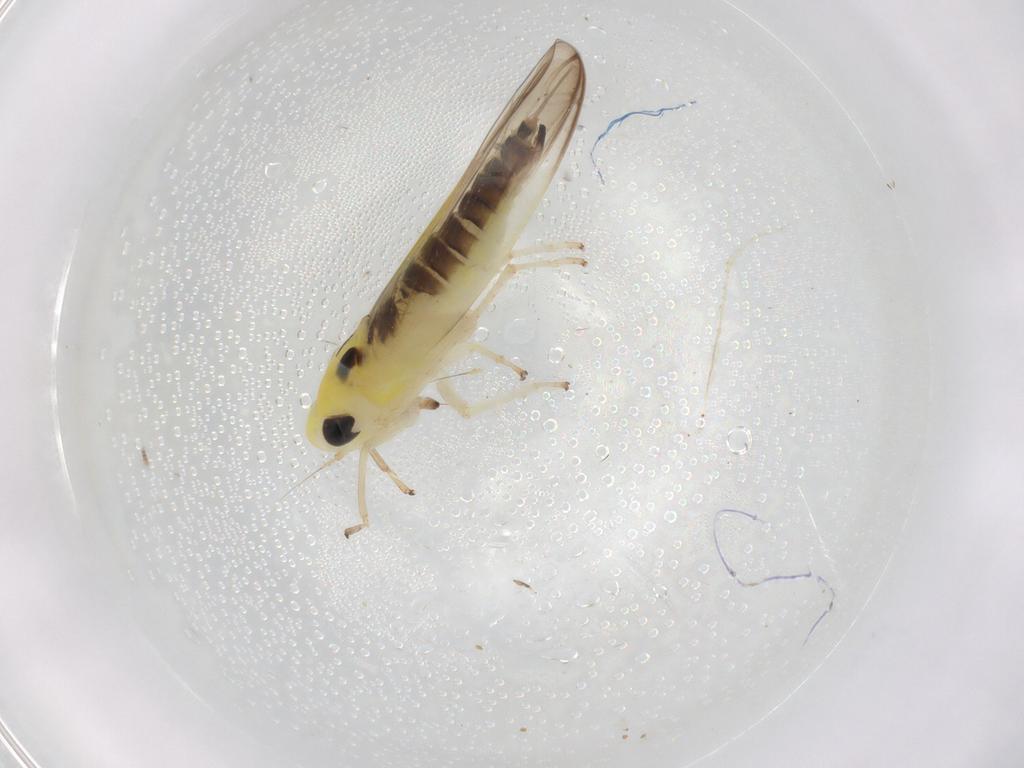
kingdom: Animalia
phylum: Arthropoda
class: Insecta
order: Hemiptera
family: Cicadellidae
